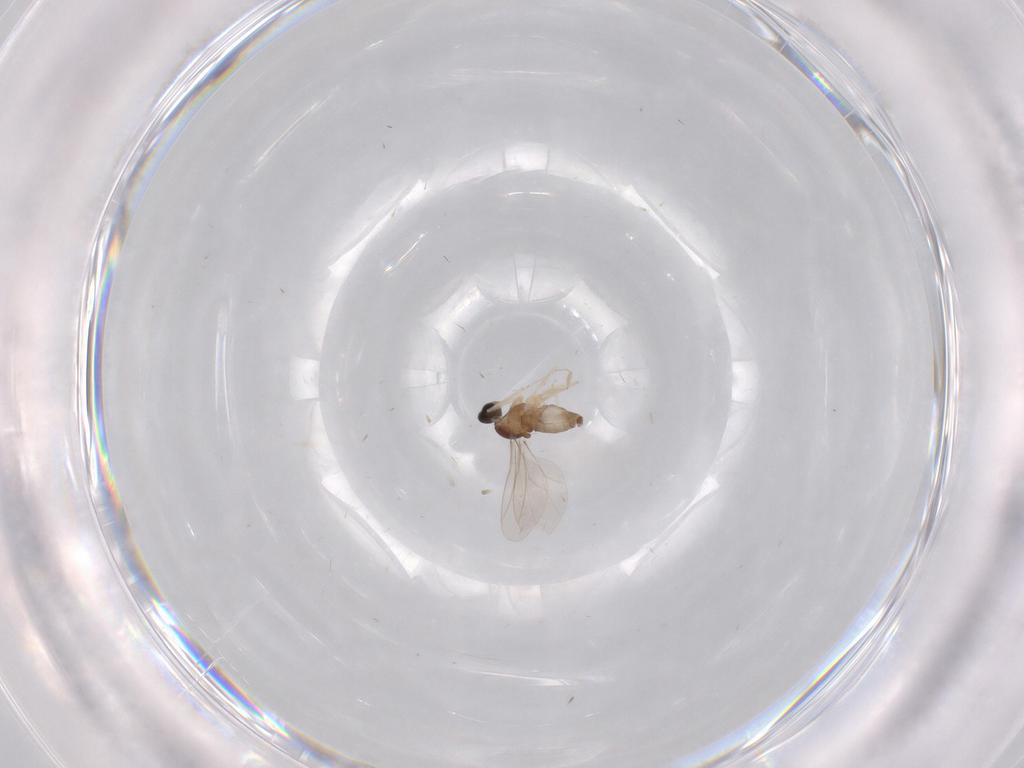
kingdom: Animalia
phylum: Arthropoda
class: Insecta
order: Diptera
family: Cecidomyiidae
